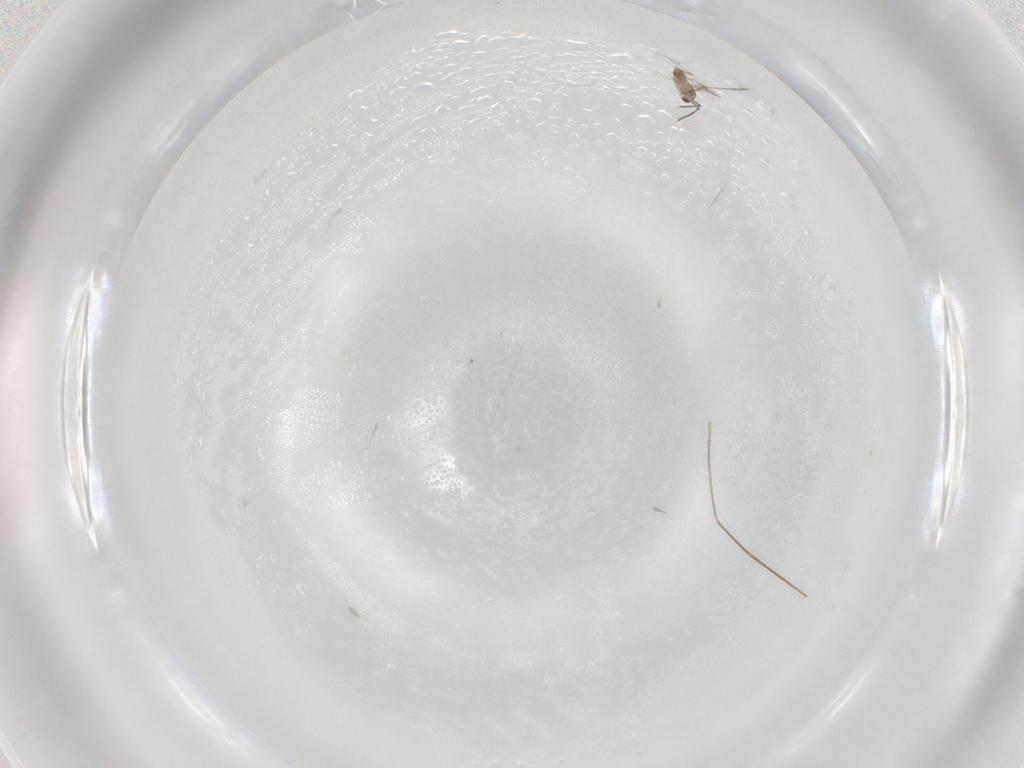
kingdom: Animalia
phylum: Arthropoda
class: Insecta
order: Hymenoptera
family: Mymaridae
